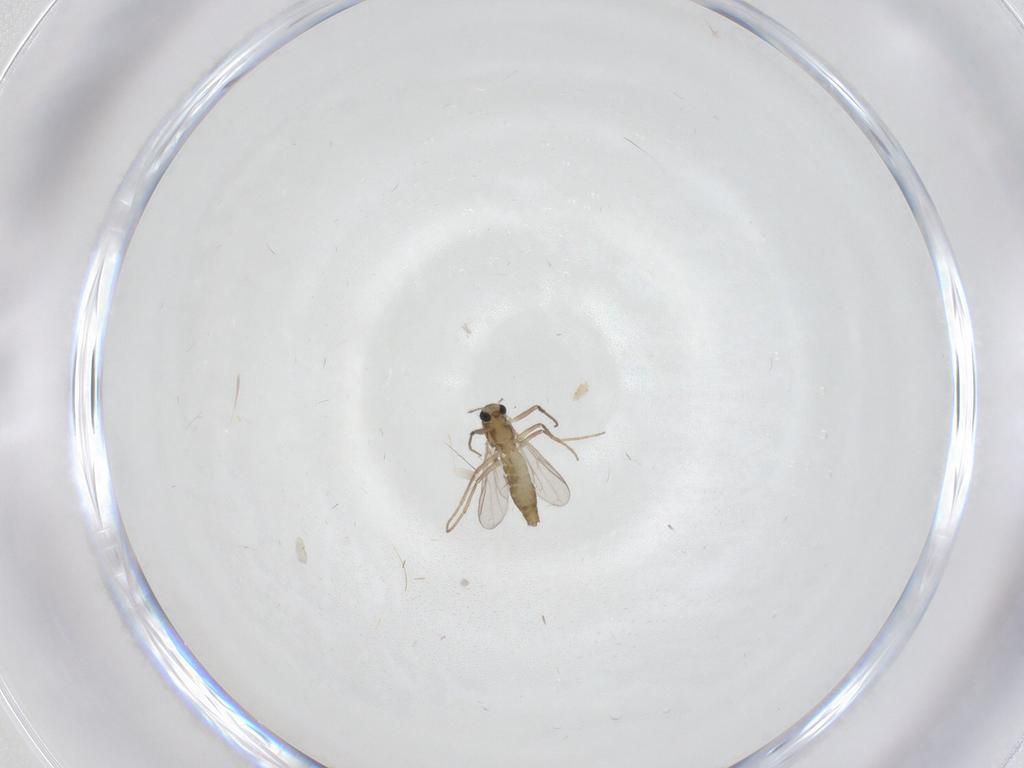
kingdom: Animalia
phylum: Arthropoda
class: Insecta
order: Diptera
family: Chironomidae
